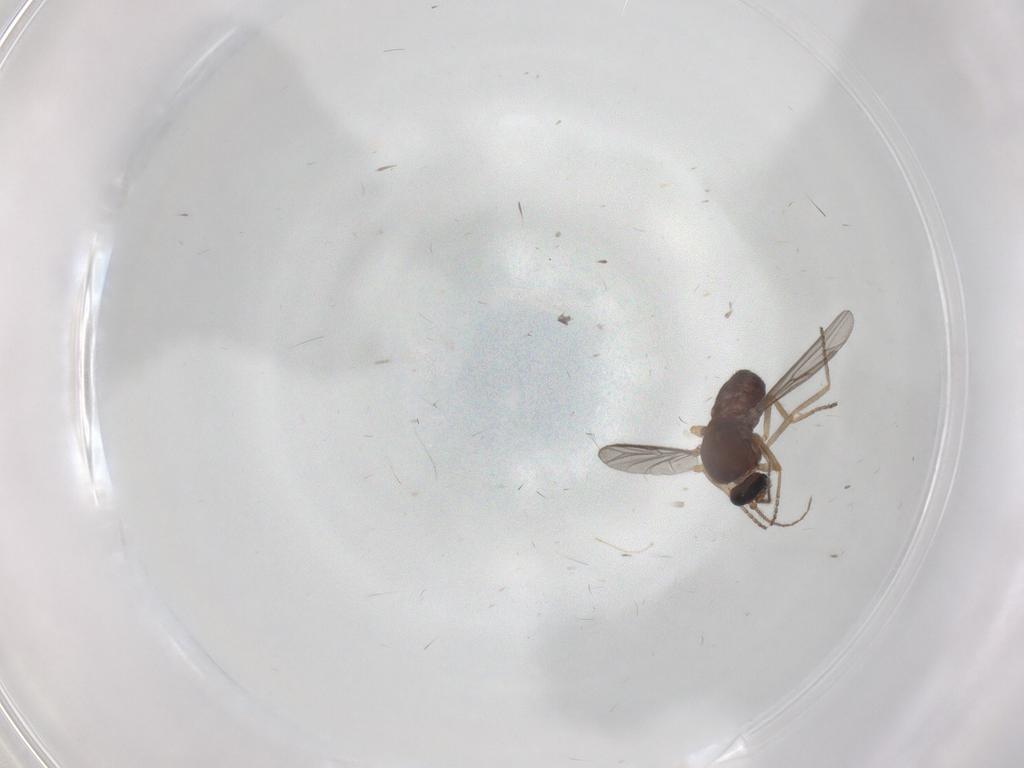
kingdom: Animalia
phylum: Arthropoda
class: Insecta
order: Diptera
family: Ceratopogonidae
